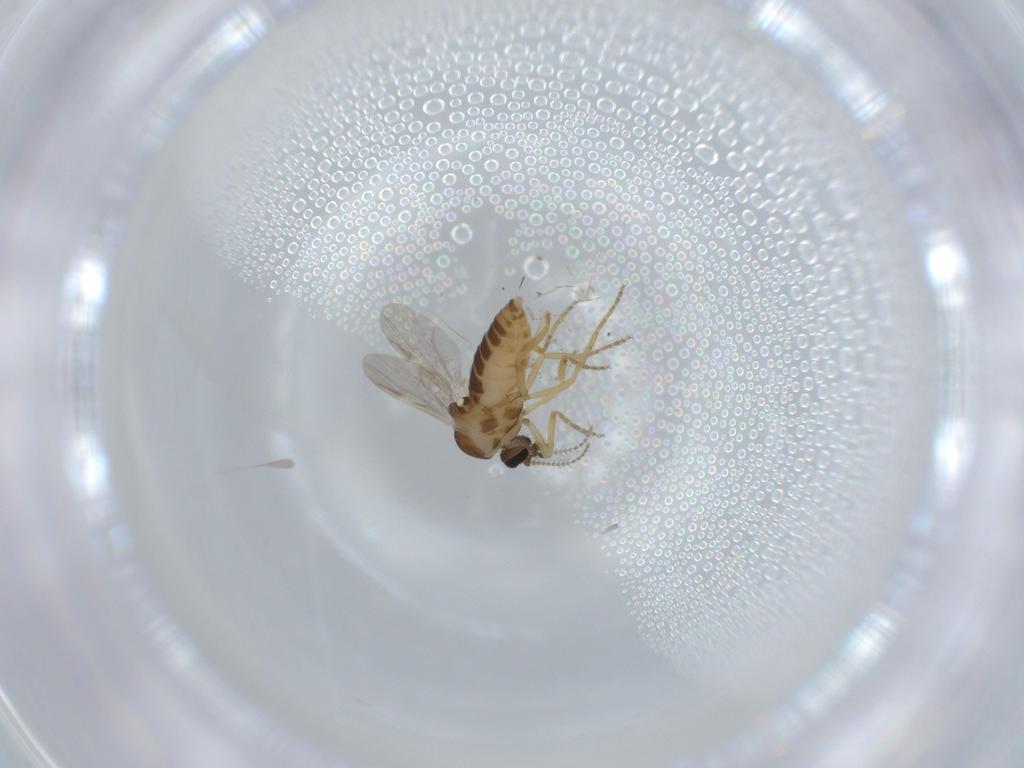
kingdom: Animalia
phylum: Arthropoda
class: Insecta
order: Diptera
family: Ceratopogonidae
